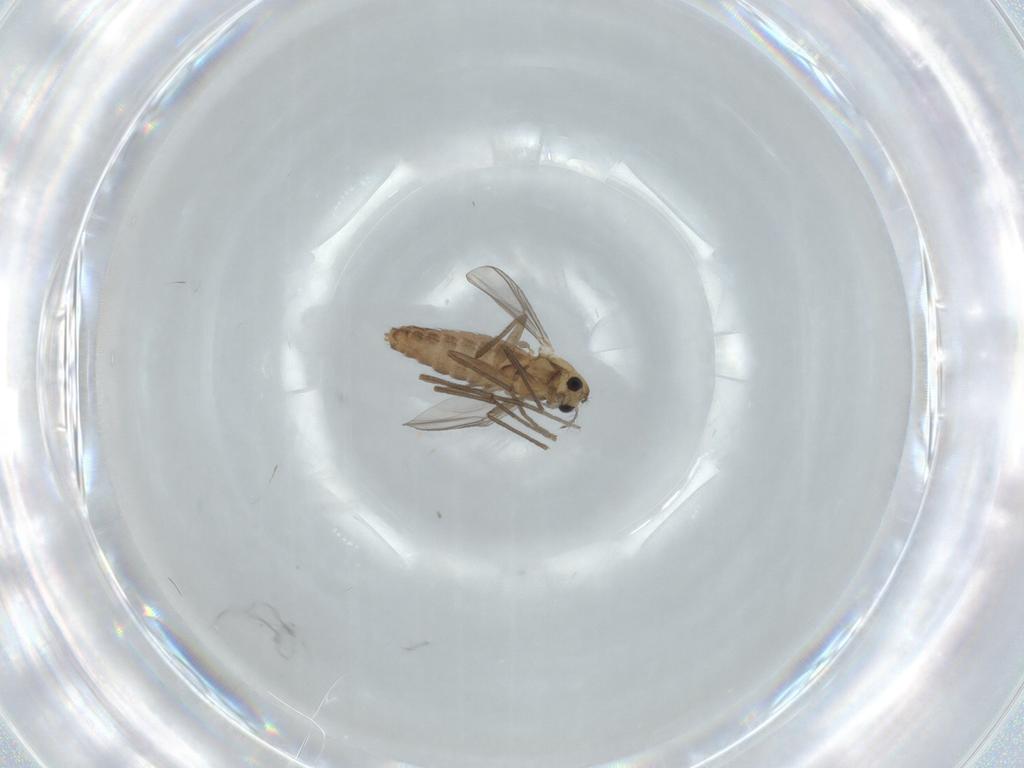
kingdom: Animalia
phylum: Arthropoda
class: Insecta
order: Diptera
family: Chironomidae
